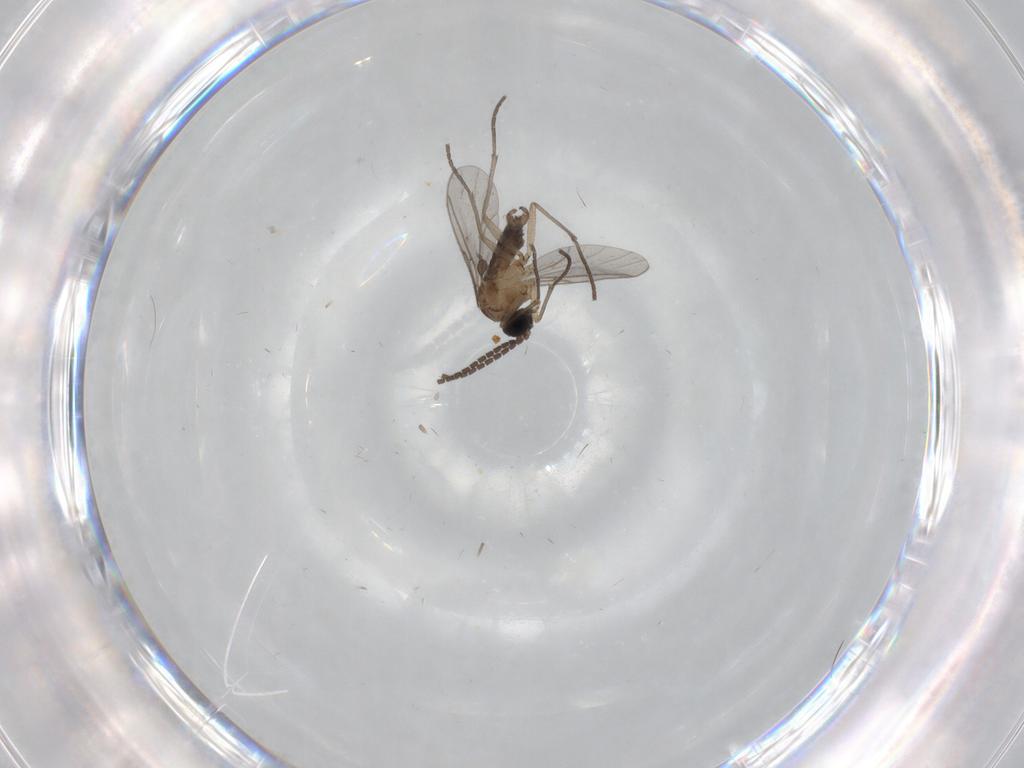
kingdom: Animalia
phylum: Arthropoda
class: Insecta
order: Diptera
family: Sciaridae
